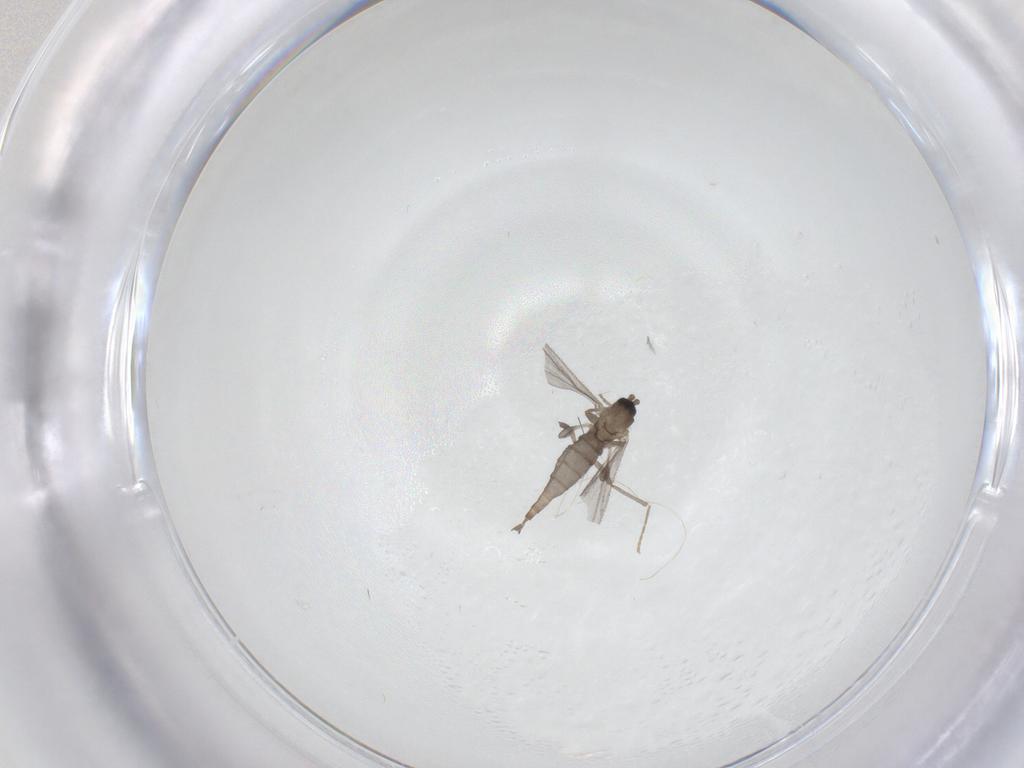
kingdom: Animalia
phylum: Arthropoda
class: Insecta
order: Diptera
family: Sciaridae
